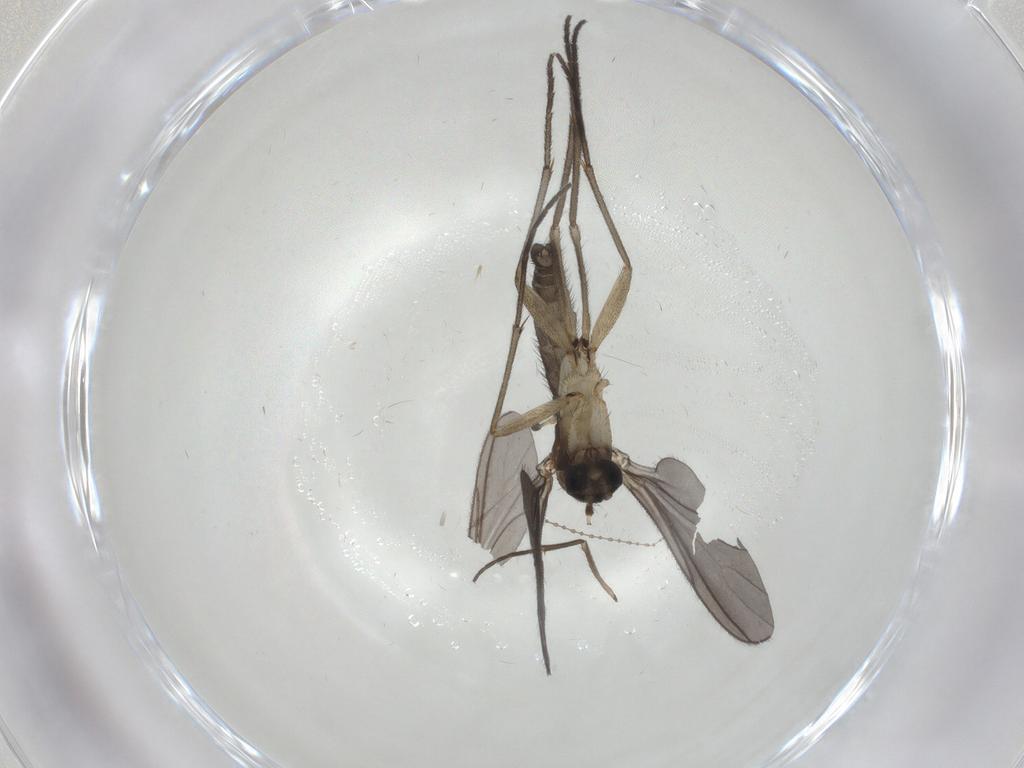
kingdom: Animalia
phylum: Arthropoda
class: Insecta
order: Diptera
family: Sciaridae
